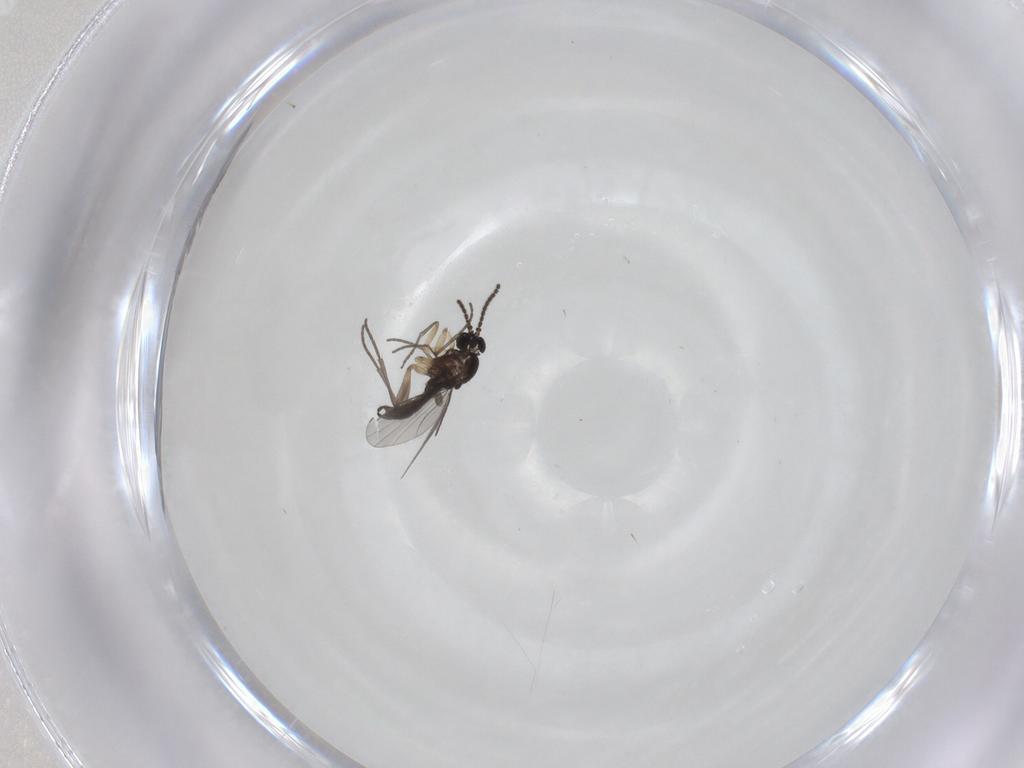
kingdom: Animalia
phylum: Arthropoda
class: Insecta
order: Diptera
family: Sciaridae
